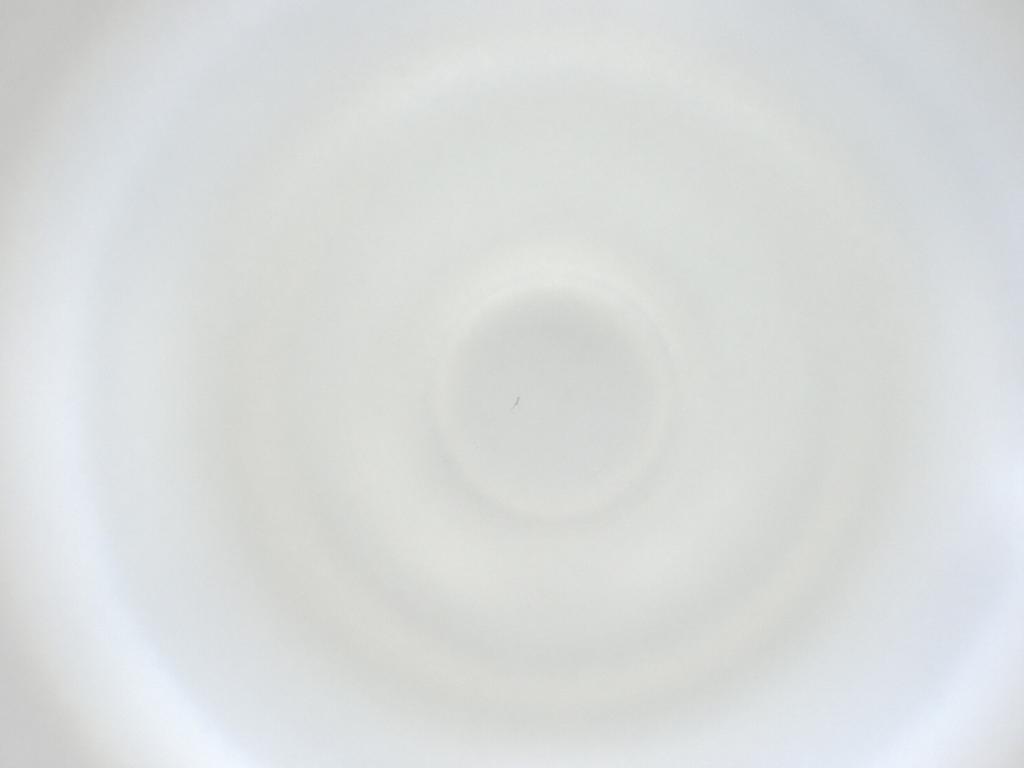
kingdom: Animalia
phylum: Arthropoda
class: Insecta
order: Diptera
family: Cecidomyiidae
